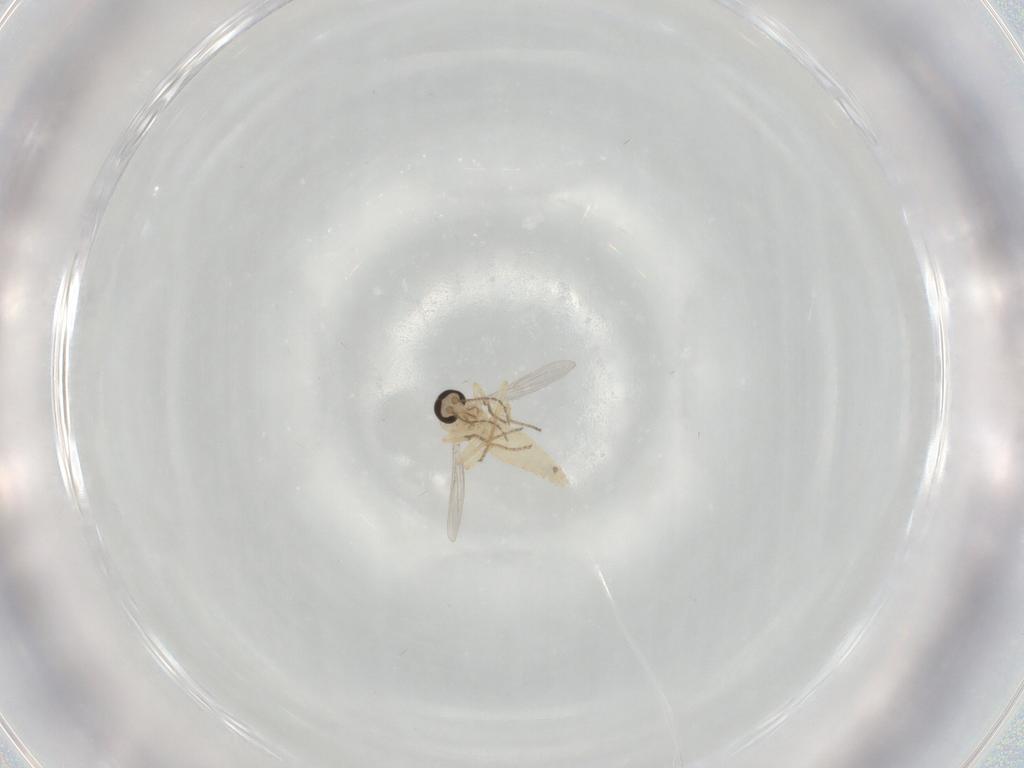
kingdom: Animalia
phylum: Arthropoda
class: Insecta
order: Diptera
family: Ceratopogonidae
